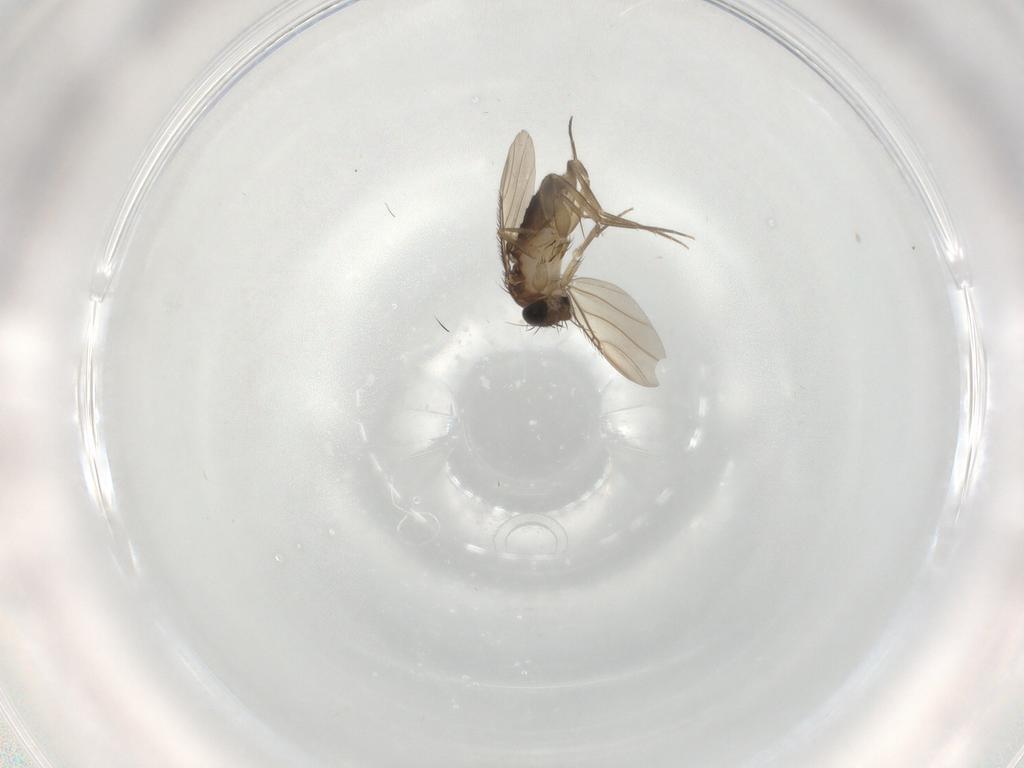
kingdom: Animalia
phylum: Arthropoda
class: Insecta
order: Diptera
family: Phoridae
